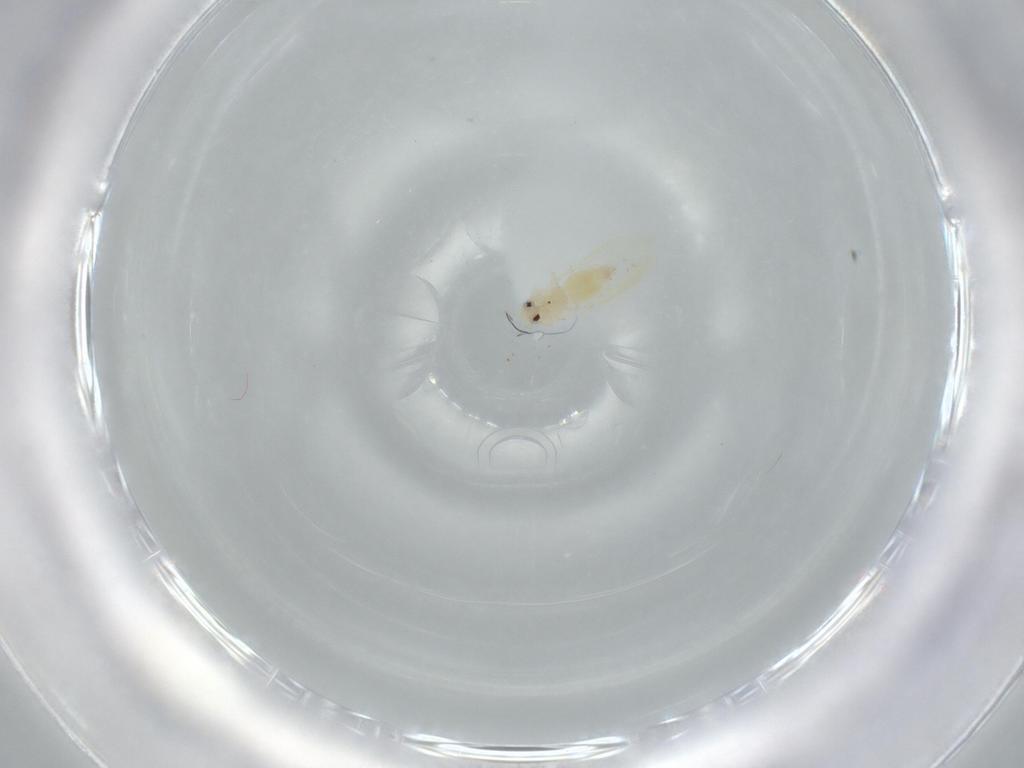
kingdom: Animalia
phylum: Arthropoda
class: Insecta
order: Hemiptera
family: Aleyrodidae
